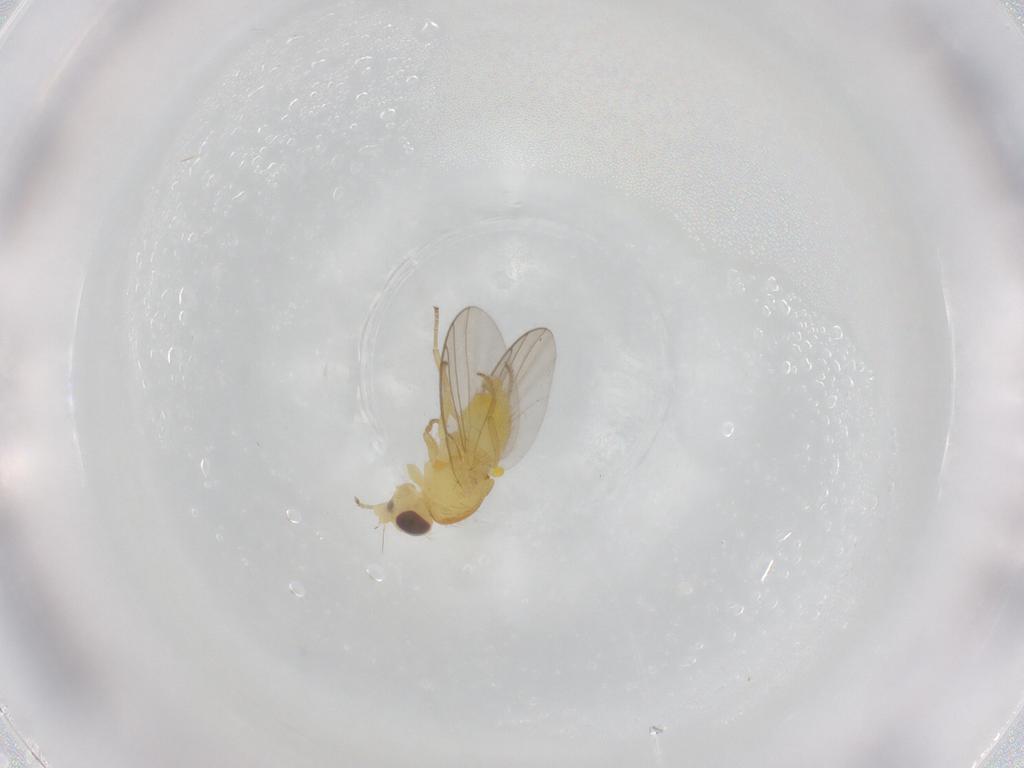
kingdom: Animalia
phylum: Arthropoda
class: Insecta
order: Diptera
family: Agromyzidae
